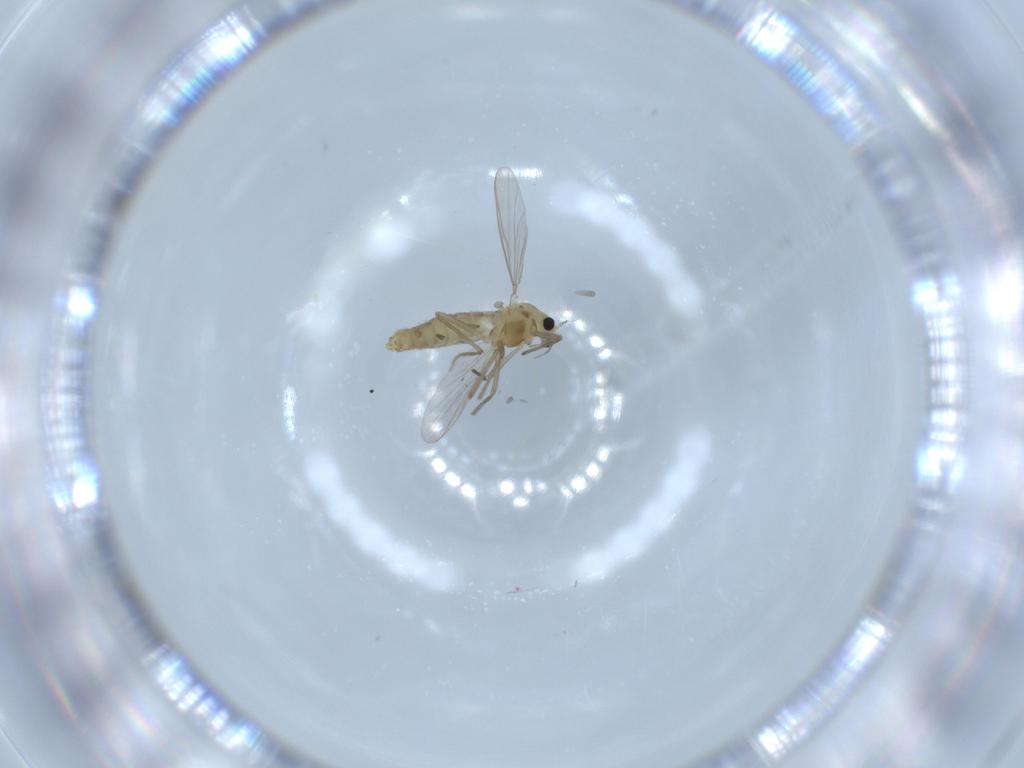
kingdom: Animalia
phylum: Arthropoda
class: Insecta
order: Diptera
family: Chironomidae
